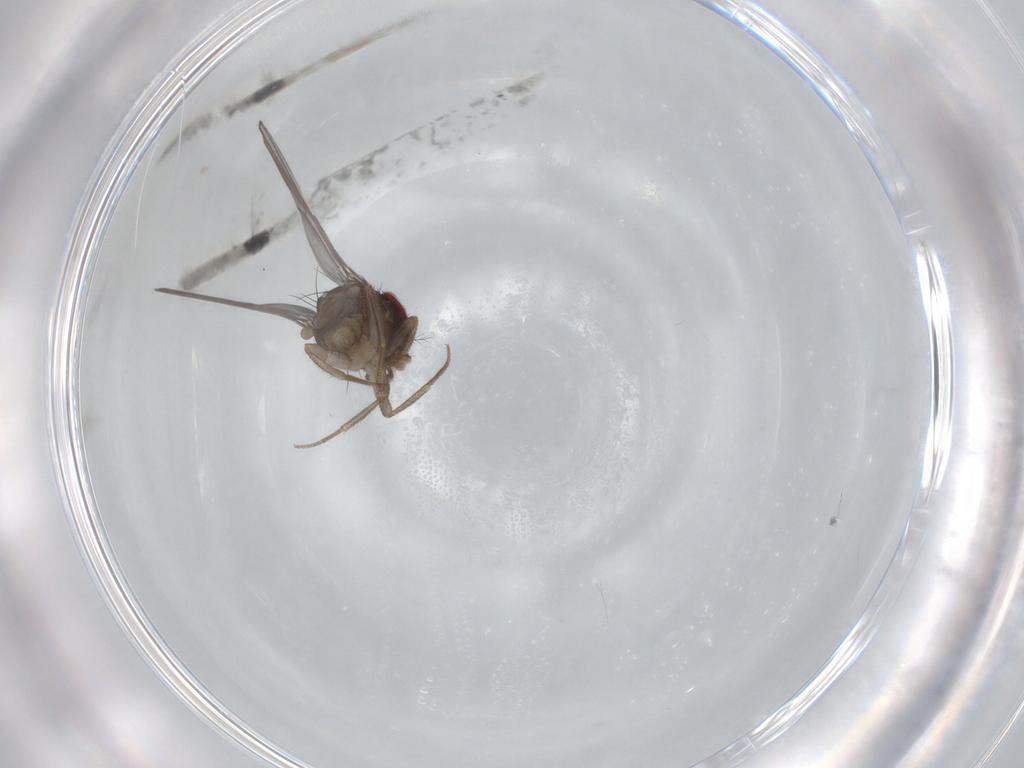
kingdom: Animalia
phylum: Arthropoda
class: Insecta
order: Diptera
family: Drosophilidae
